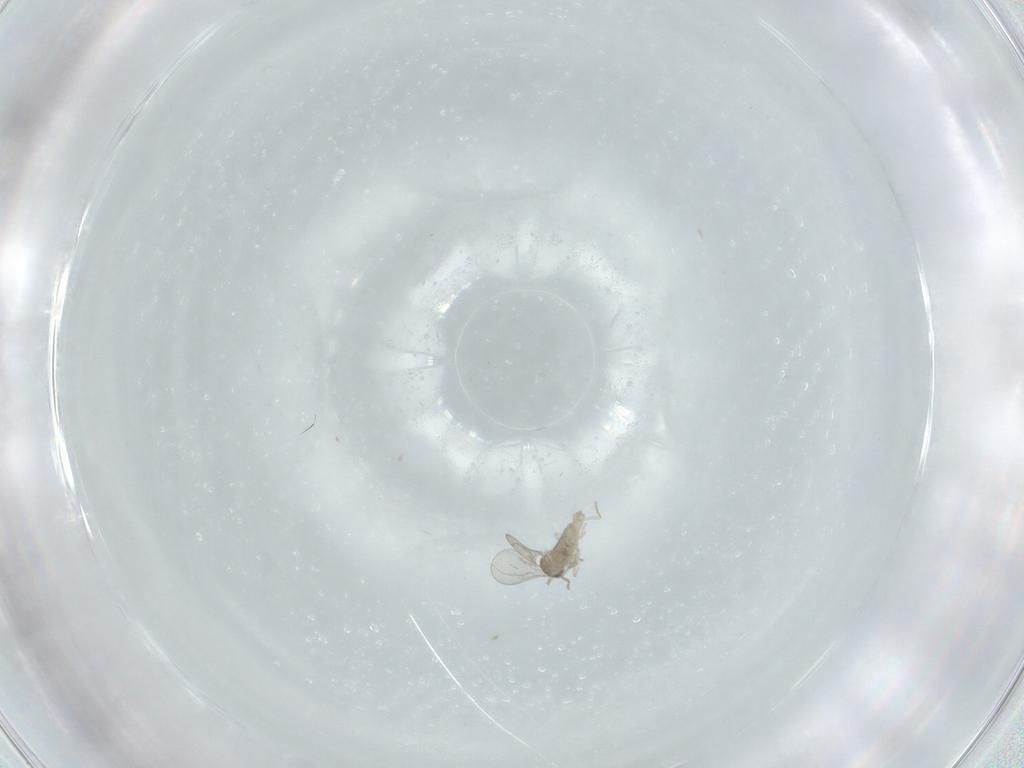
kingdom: Animalia
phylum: Arthropoda
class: Insecta
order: Diptera
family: Cecidomyiidae
